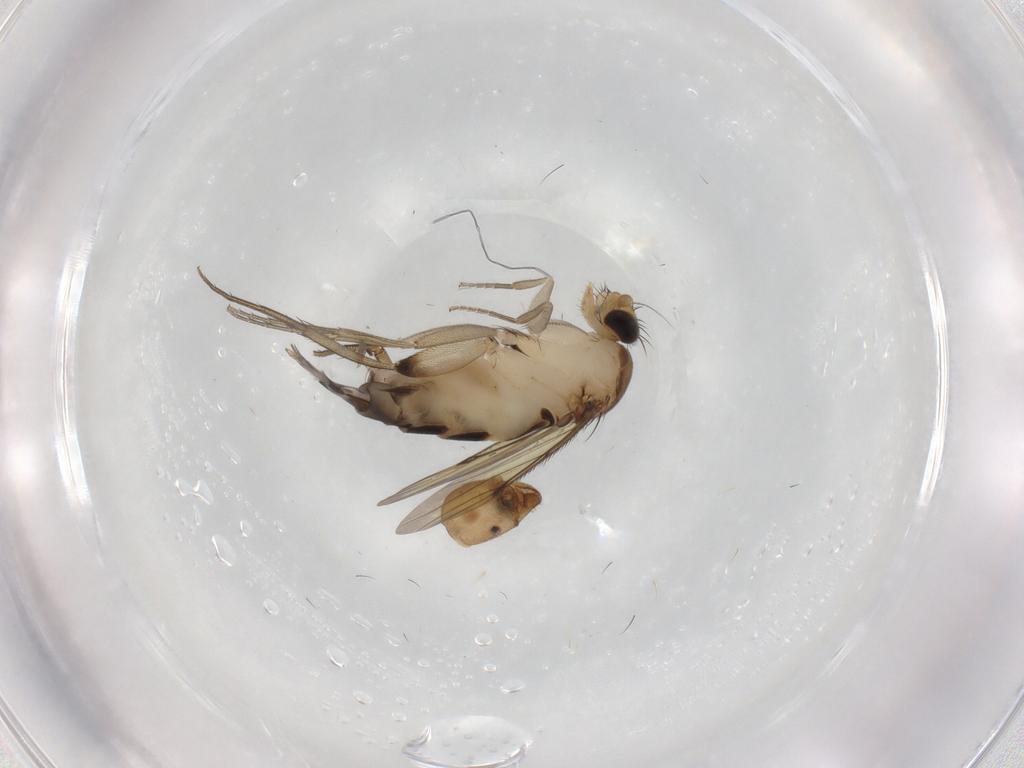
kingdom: Animalia
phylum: Arthropoda
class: Insecta
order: Diptera
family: Phoridae
